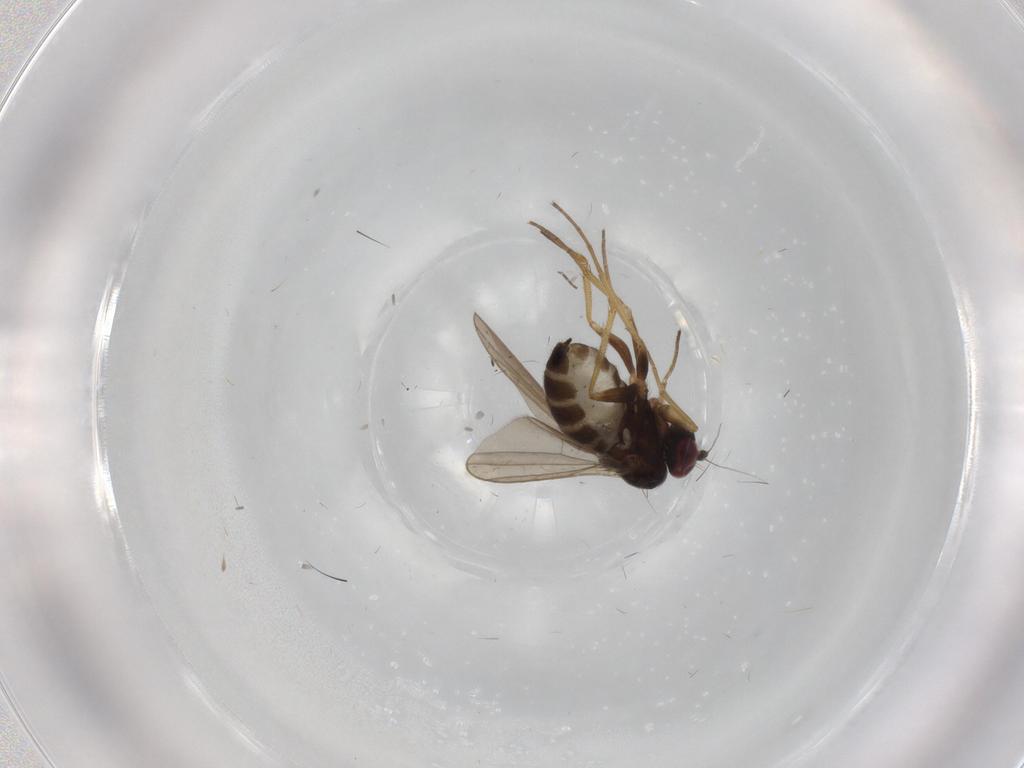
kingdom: Animalia
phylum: Arthropoda
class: Insecta
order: Diptera
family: Dolichopodidae
